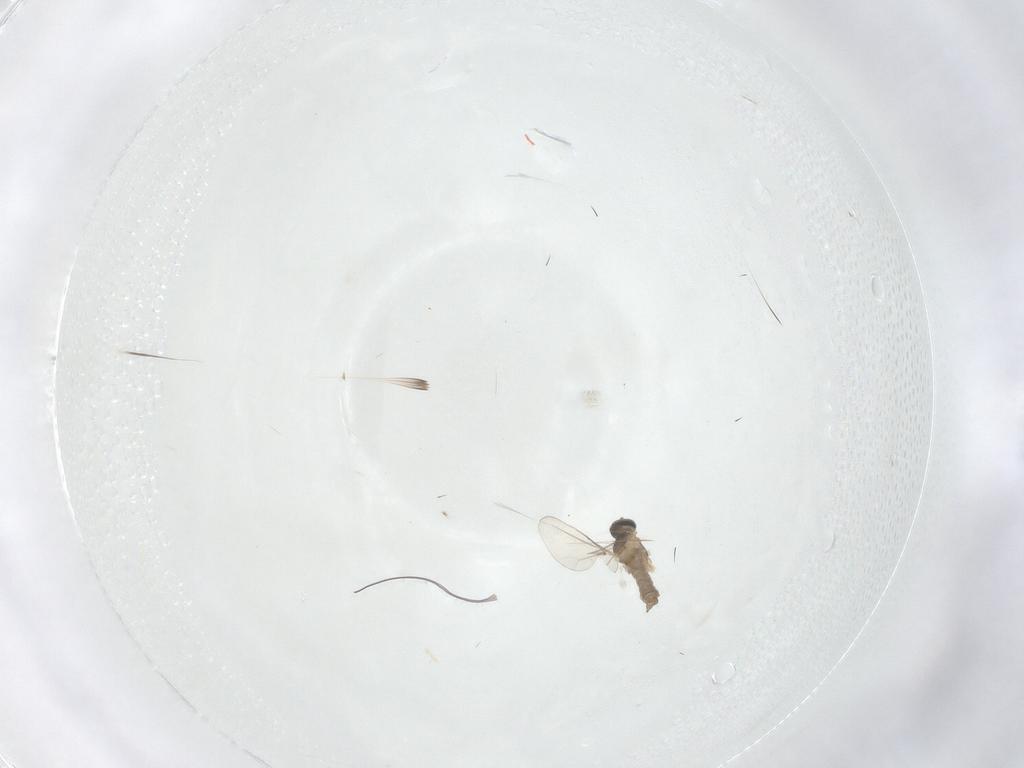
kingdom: Animalia
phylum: Arthropoda
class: Insecta
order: Diptera
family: Cecidomyiidae
